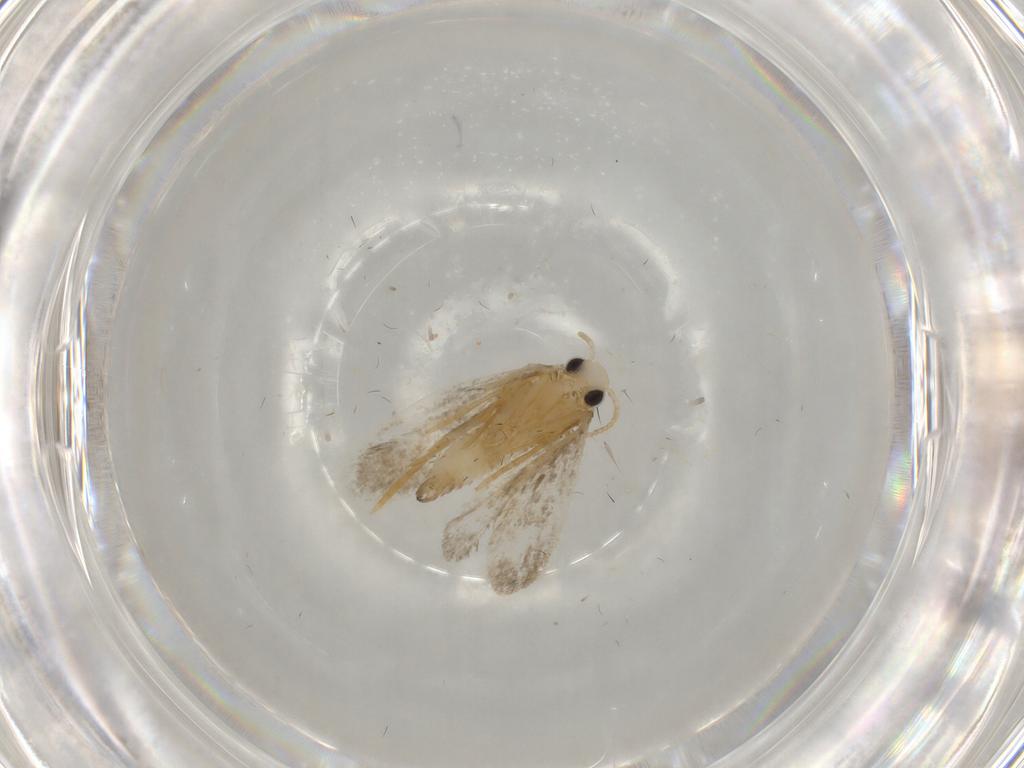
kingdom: Animalia
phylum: Arthropoda
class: Insecta
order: Lepidoptera
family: Psychidae
